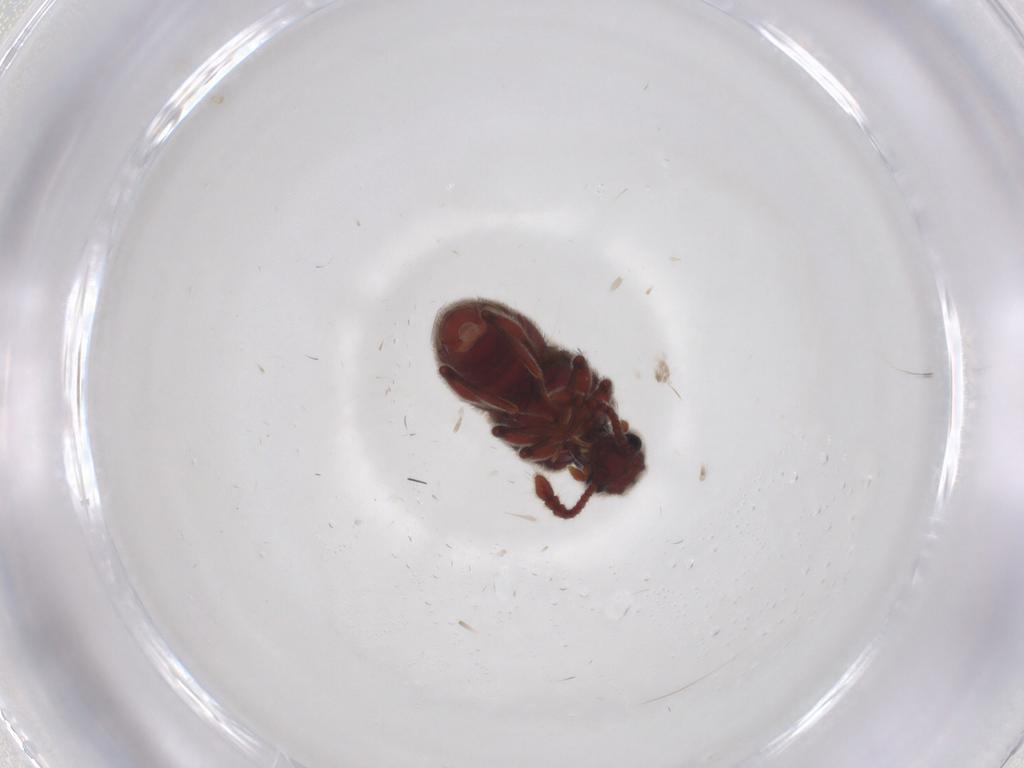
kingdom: Animalia
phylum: Arthropoda
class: Insecta
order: Coleoptera
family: Staphylinidae
